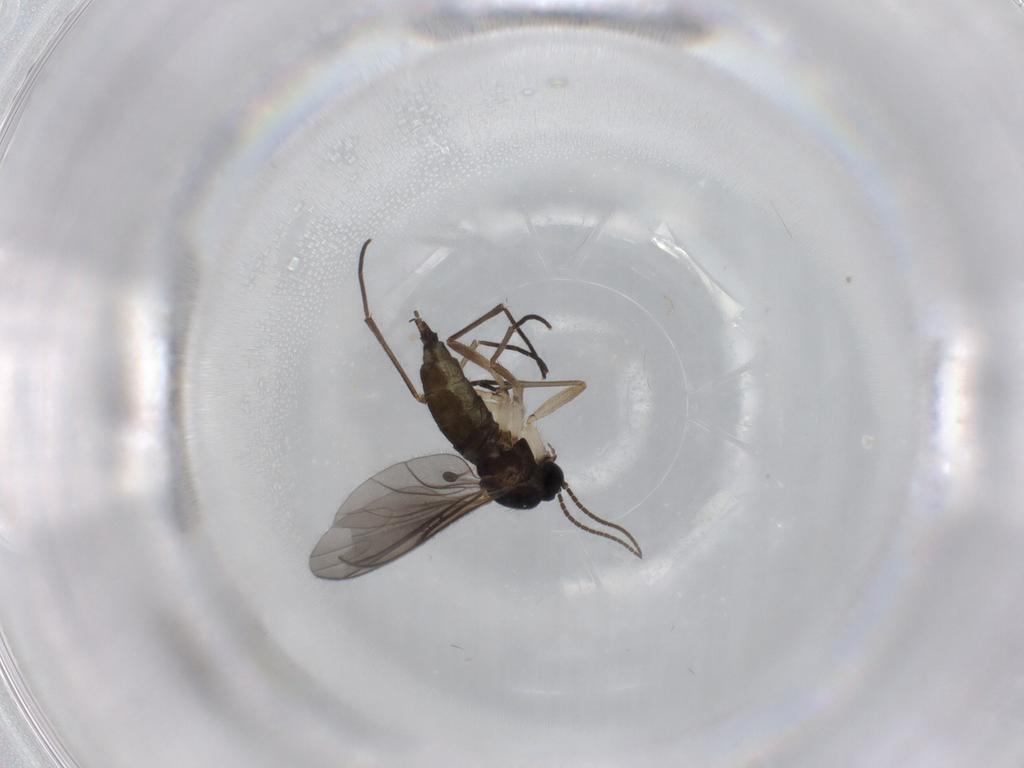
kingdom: Animalia
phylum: Arthropoda
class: Insecta
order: Diptera
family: Sciaridae
